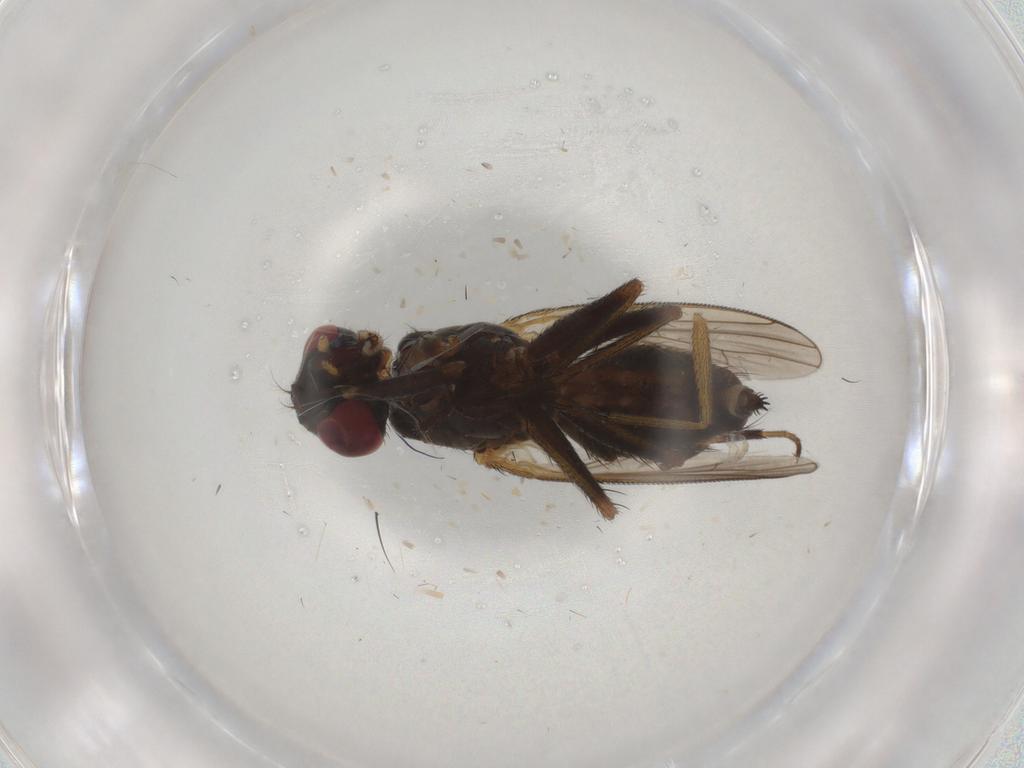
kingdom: Animalia
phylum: Arthropoda
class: Insecta
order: Diptera
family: Muscidae
